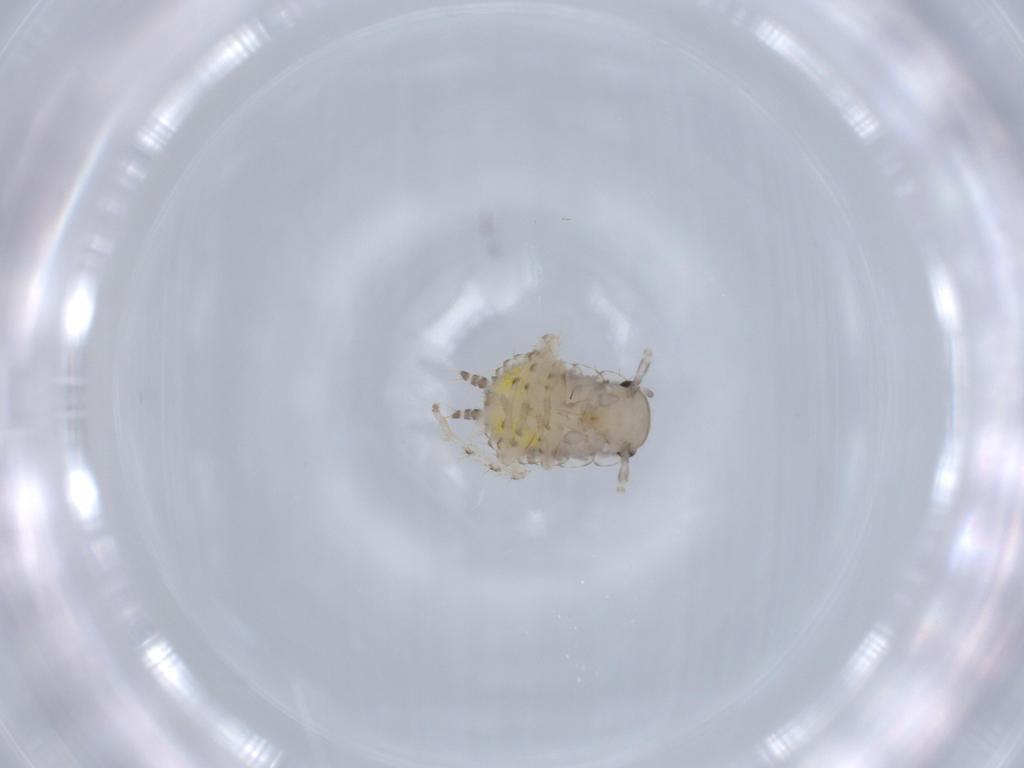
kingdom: Animalia
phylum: Arthropoda
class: Insecta
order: Blattodea
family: Ectobiidae
